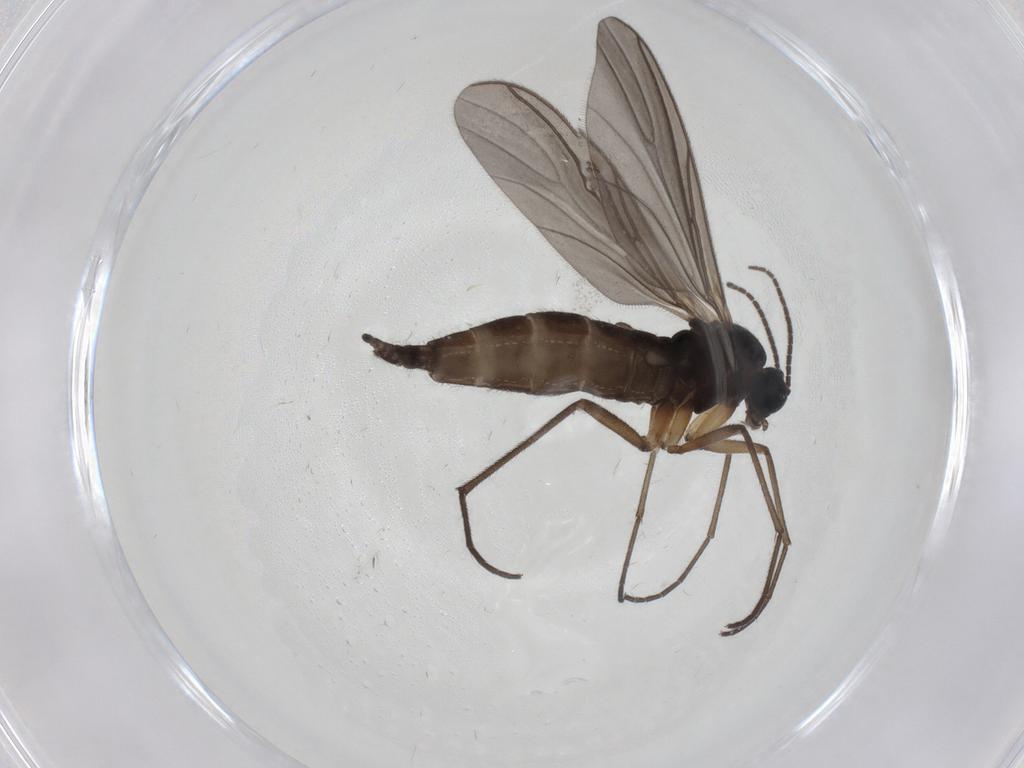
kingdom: Animalia
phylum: Arthropoda
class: Insecta
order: Diptera
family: Sciaridae
